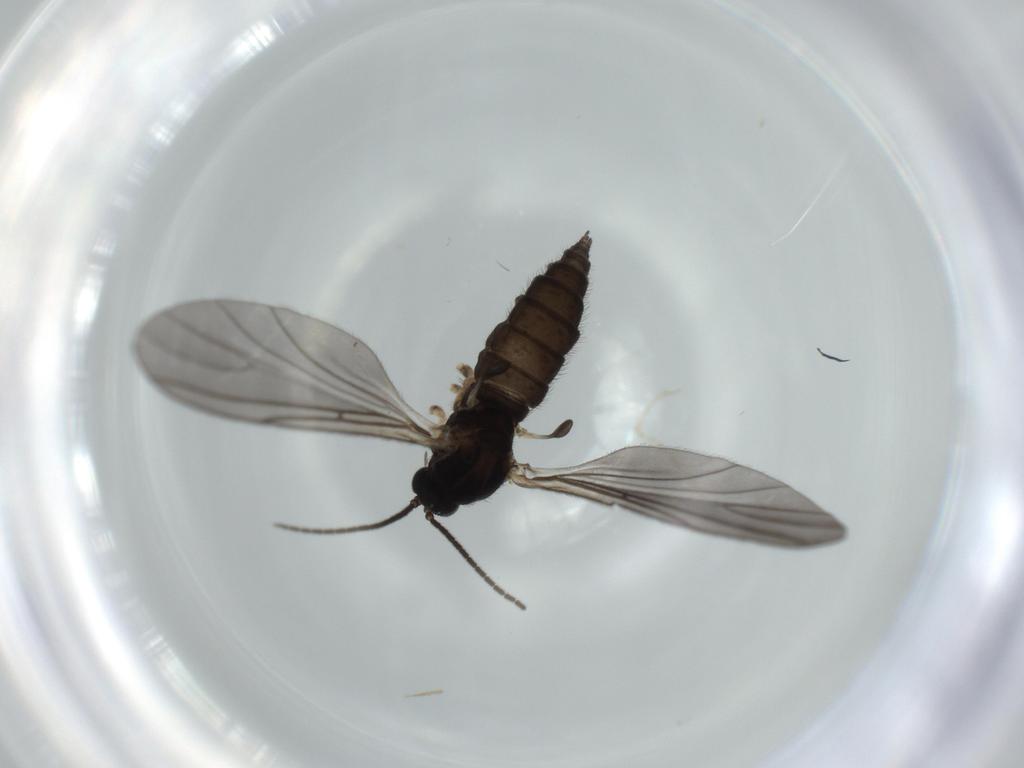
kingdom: Animalia
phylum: Arthropoda
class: Insecta
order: Diptera
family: Sciaridae
